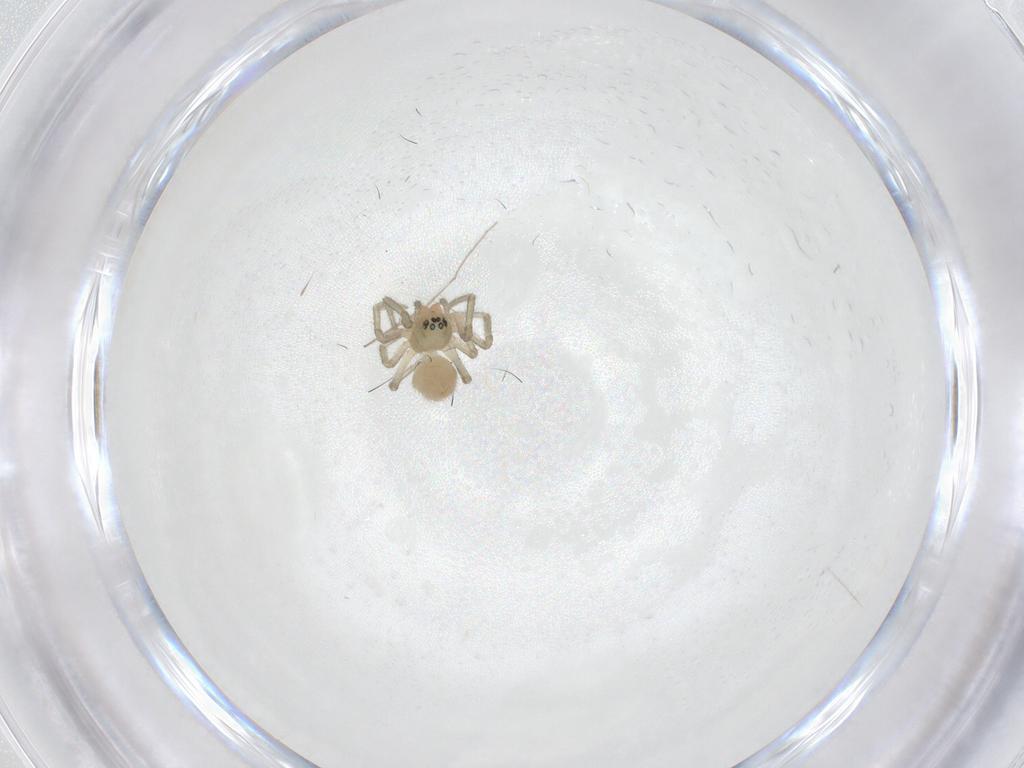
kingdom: Animalia
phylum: Arthropoda
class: Arachnida
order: Araneae
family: Linyphiidae
